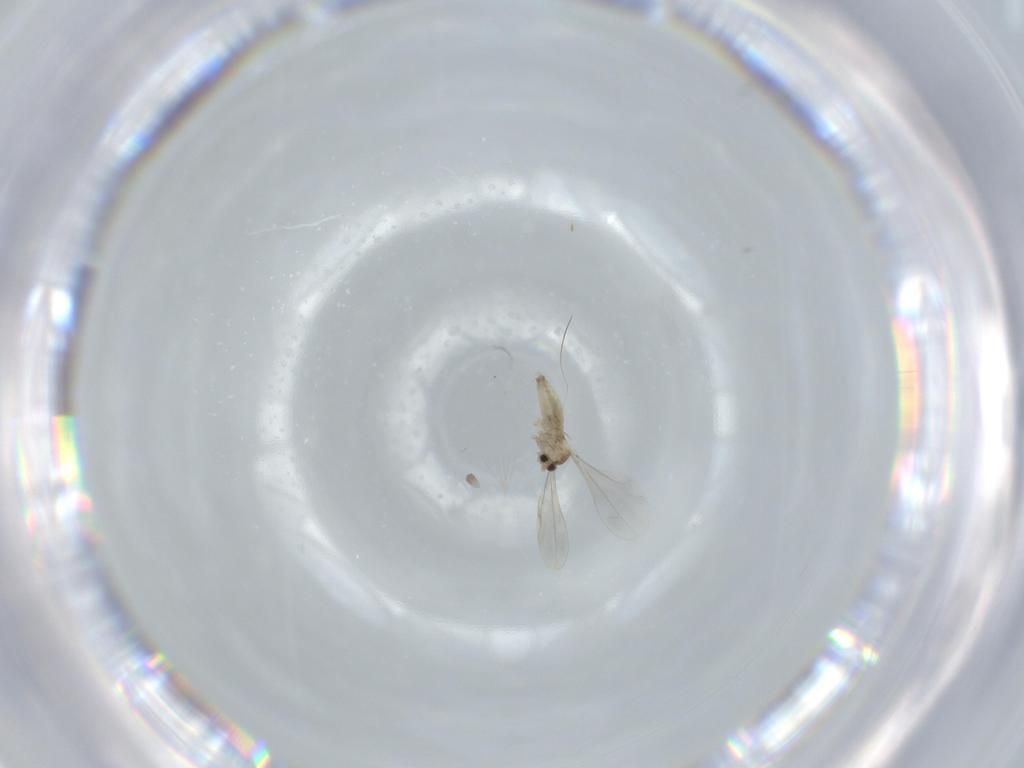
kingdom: Animalia
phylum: Arthropoda
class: Insecta
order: Diptera
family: Cecidomyiidae
